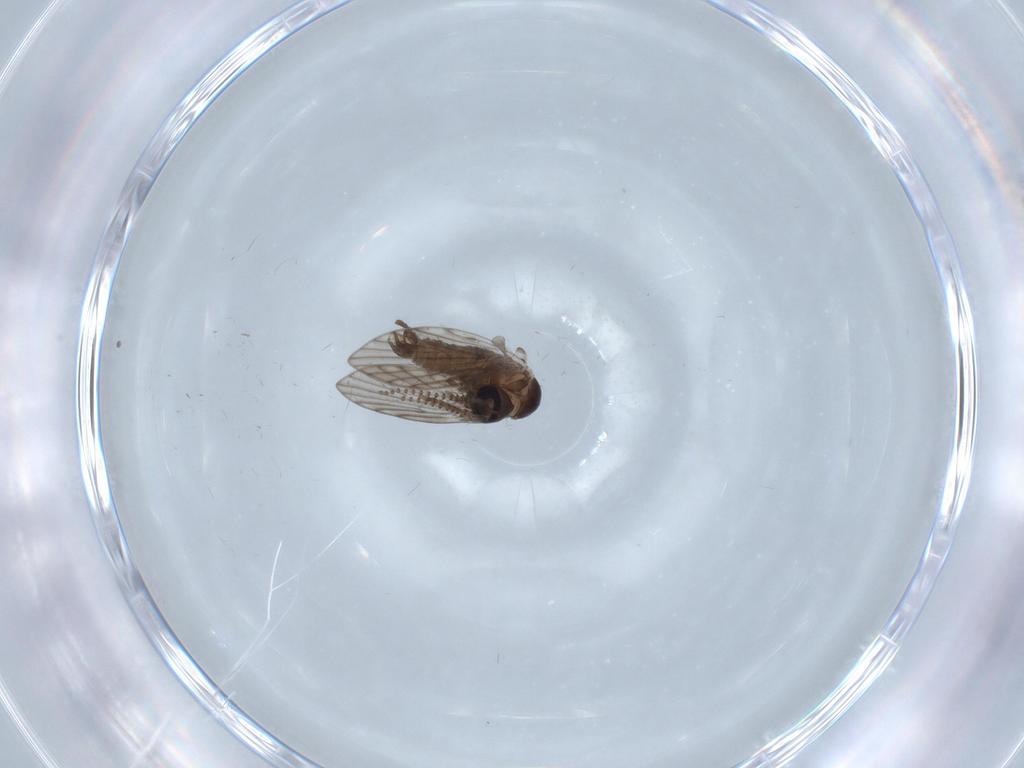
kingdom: Animalia
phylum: Arthropoda
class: Insecta
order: Diptera
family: Psychodidae
